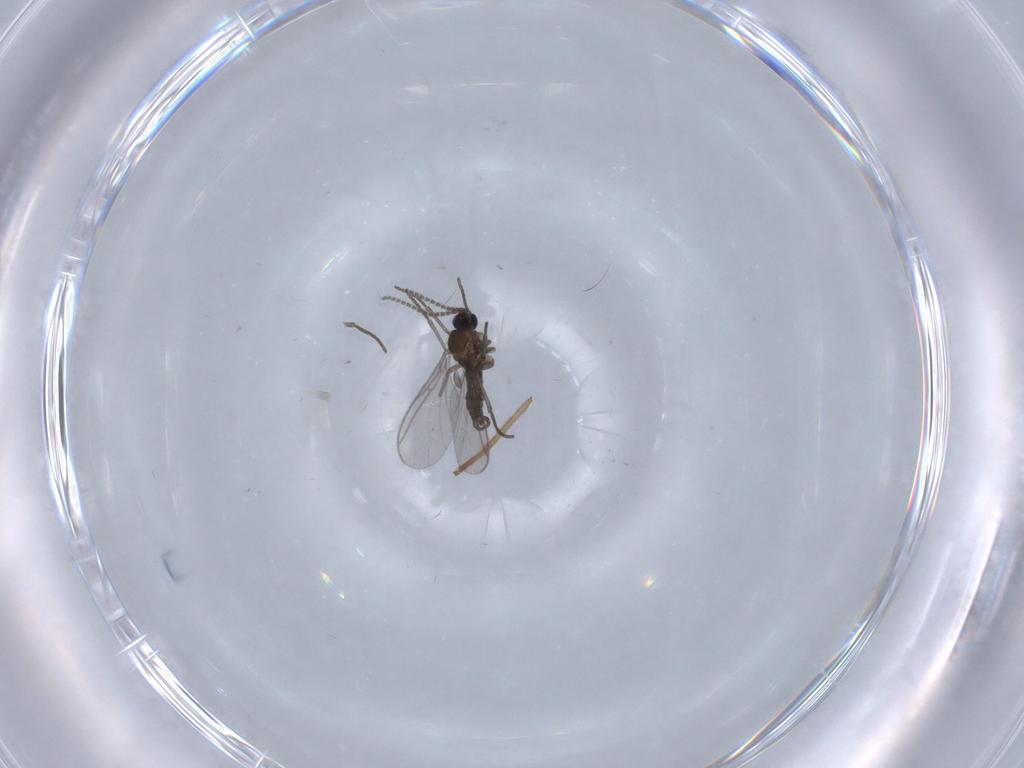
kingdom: Animalia
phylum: Arthropoda
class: Insecta
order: Diptera
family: Chironomidae
